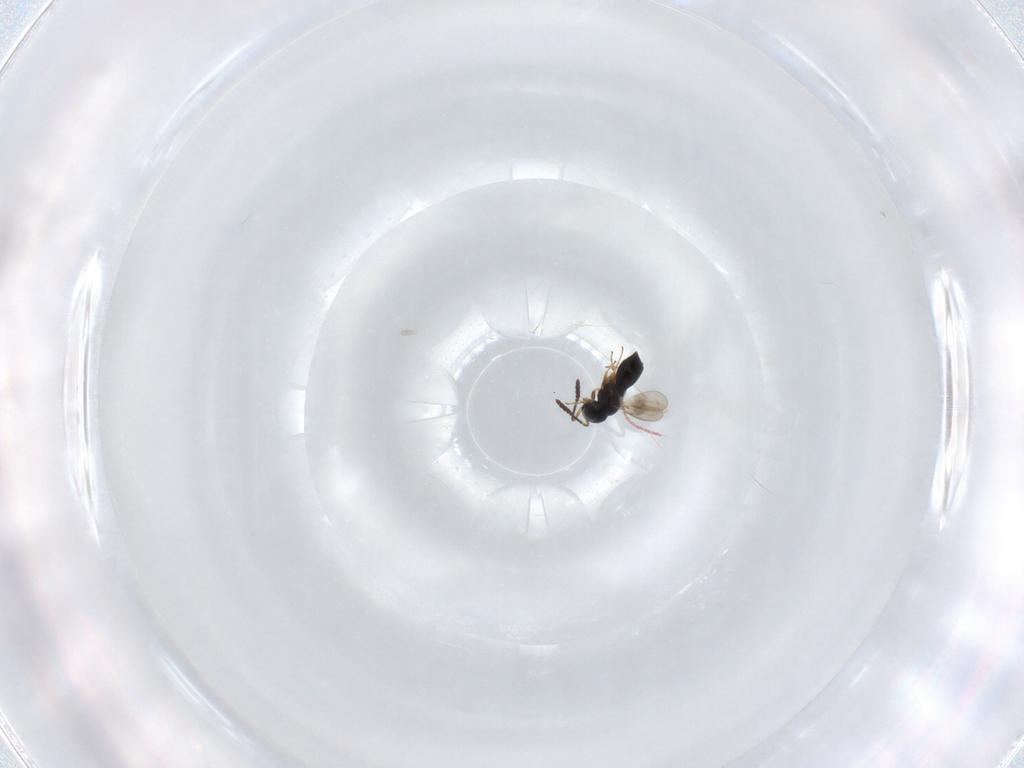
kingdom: Animalia
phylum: Arthropoda
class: Insecta
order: Hymenoptera
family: Scelionidae
